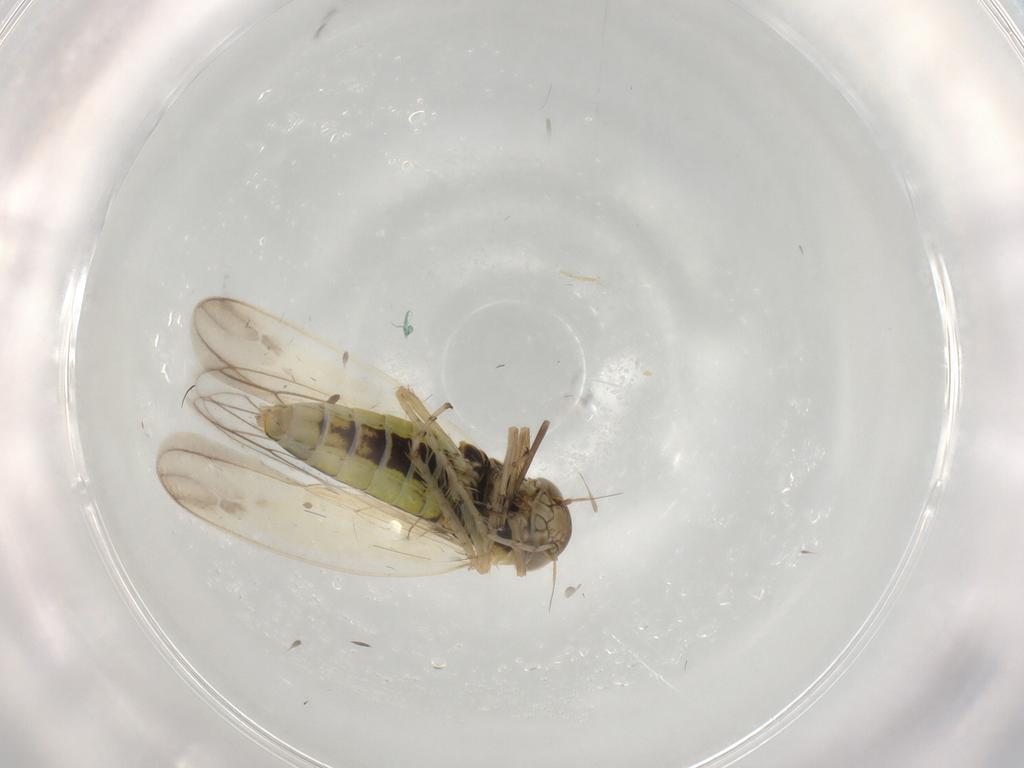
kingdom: Animalia
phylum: Arthropoda
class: Insecta
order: Hemiptera
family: Cicadellidae
